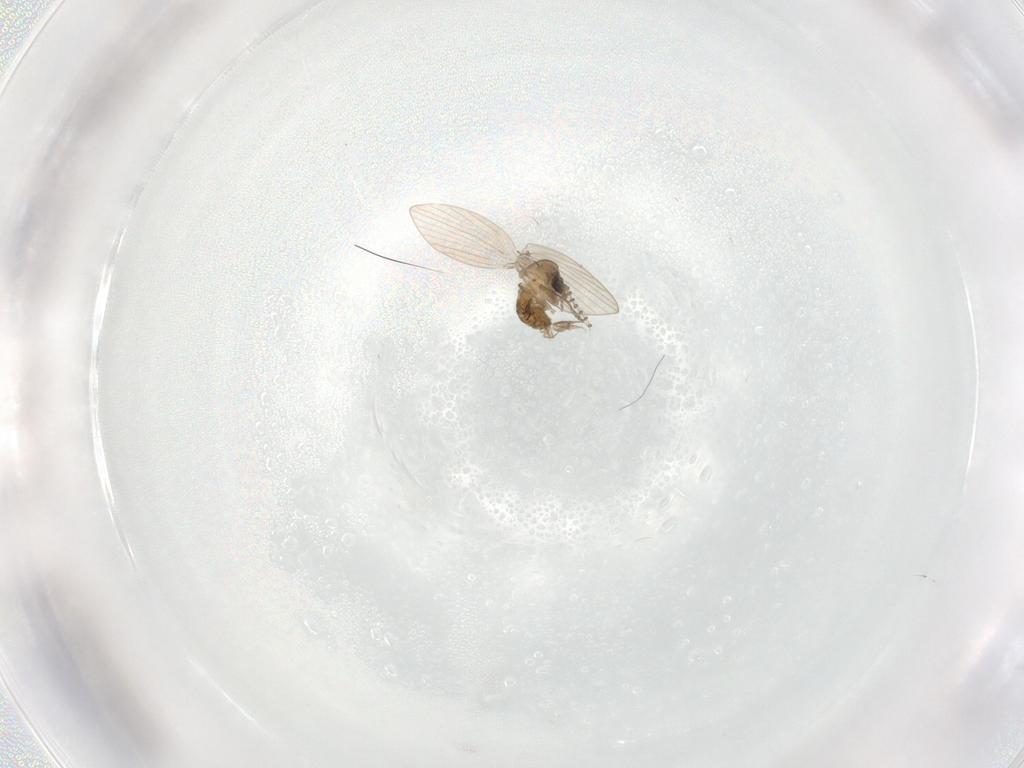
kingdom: Animalia
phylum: Arthropoda
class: Insecta
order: Diptera
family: Psychodidae
